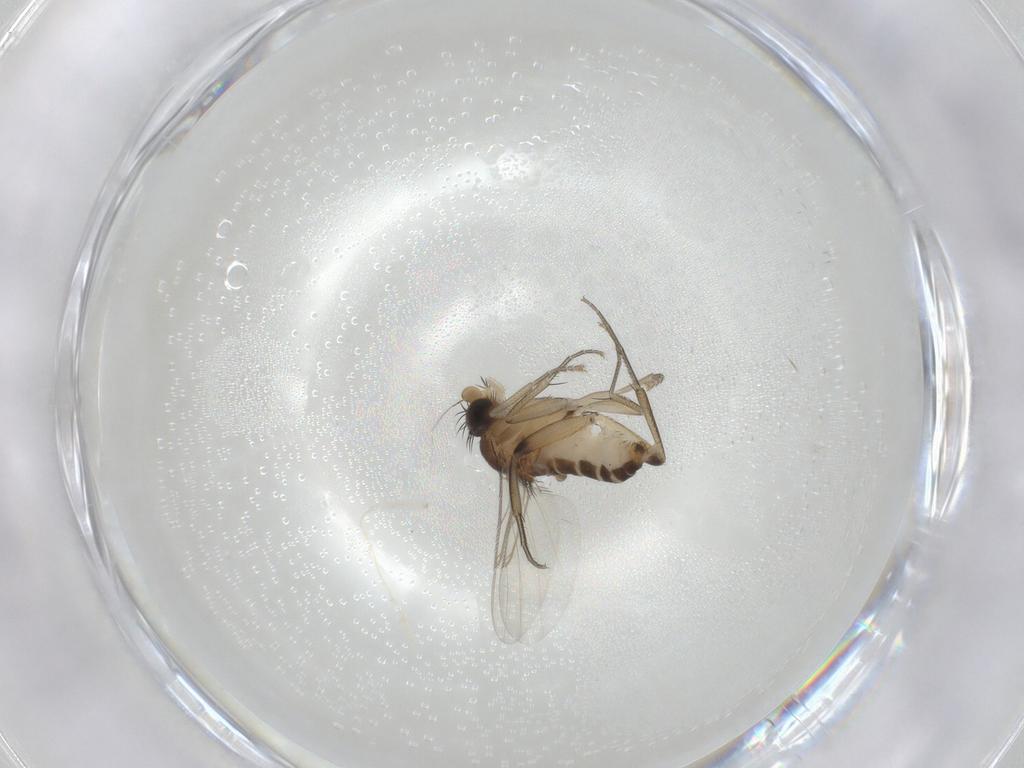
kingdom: Animalia
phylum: Arthropoda
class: Insecta
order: Diptera
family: Phoridae
